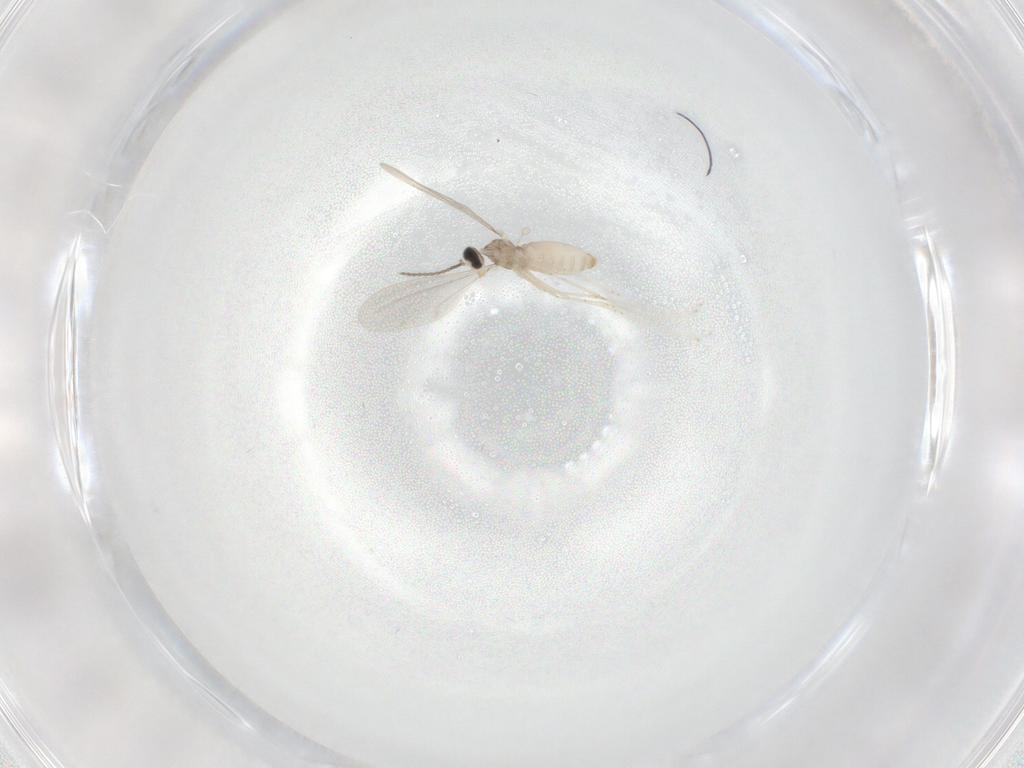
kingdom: Animalia
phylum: Arthropoda
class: Insecta
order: Diptera
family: Cecidomyiidae
